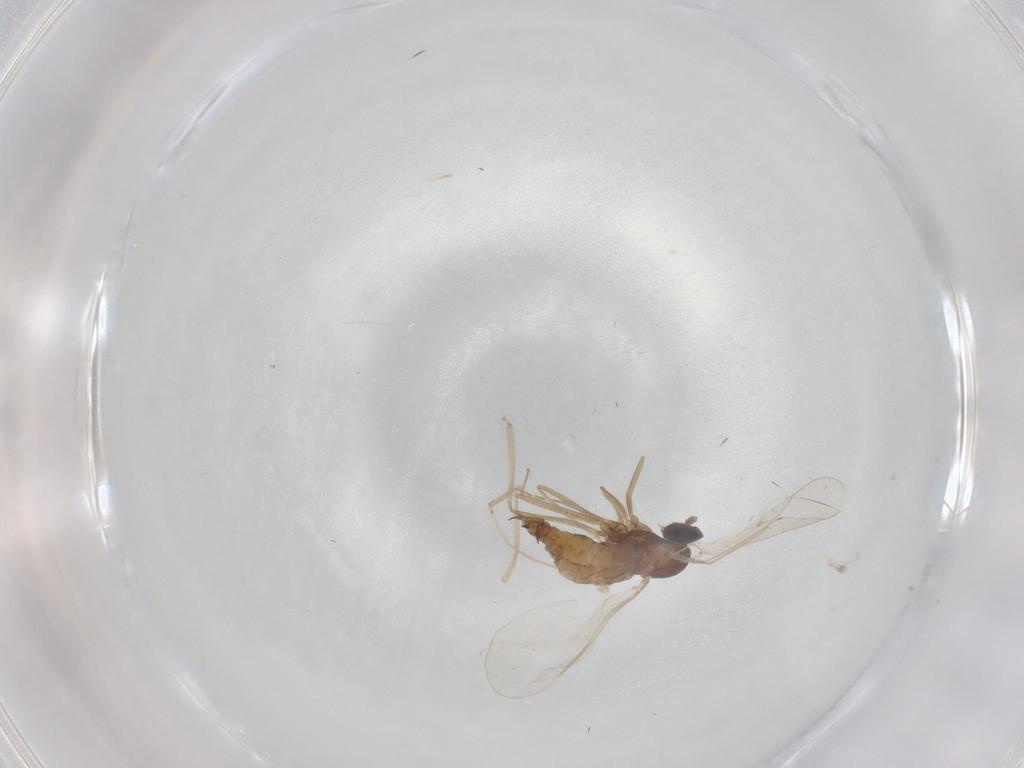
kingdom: Animalia
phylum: Arthropoda
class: Insecta
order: Diptera
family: Cecidomyiidae
